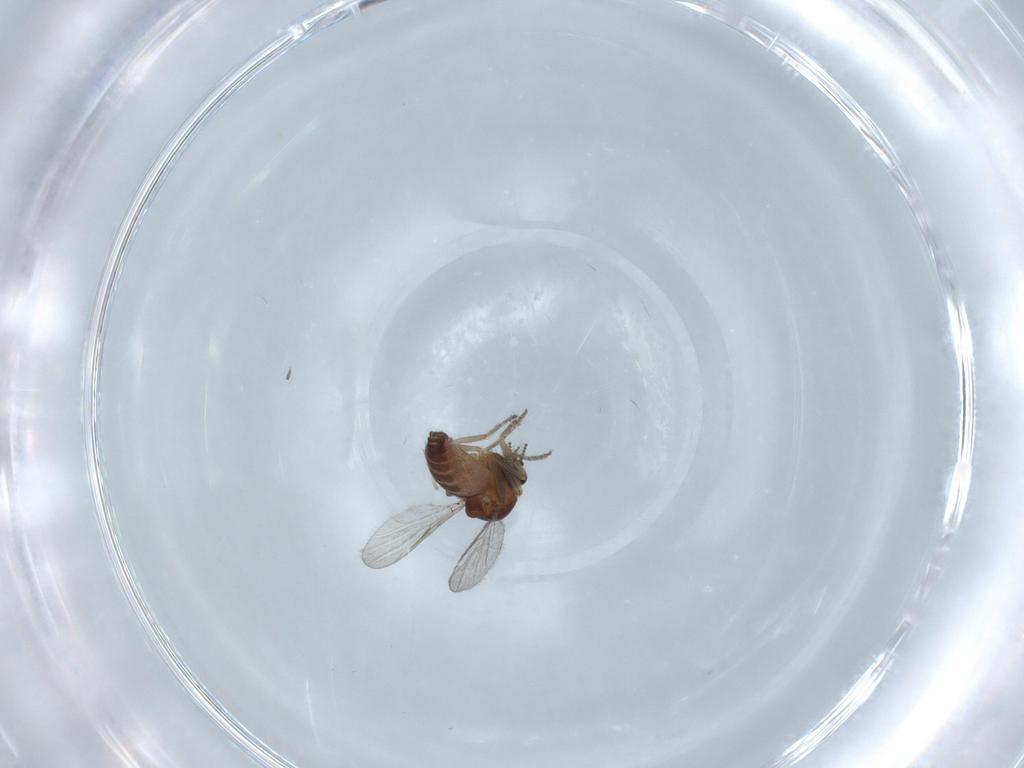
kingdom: Animalia
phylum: Arthropoda
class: Insecta
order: Diptera
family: Ceratopogonidae
